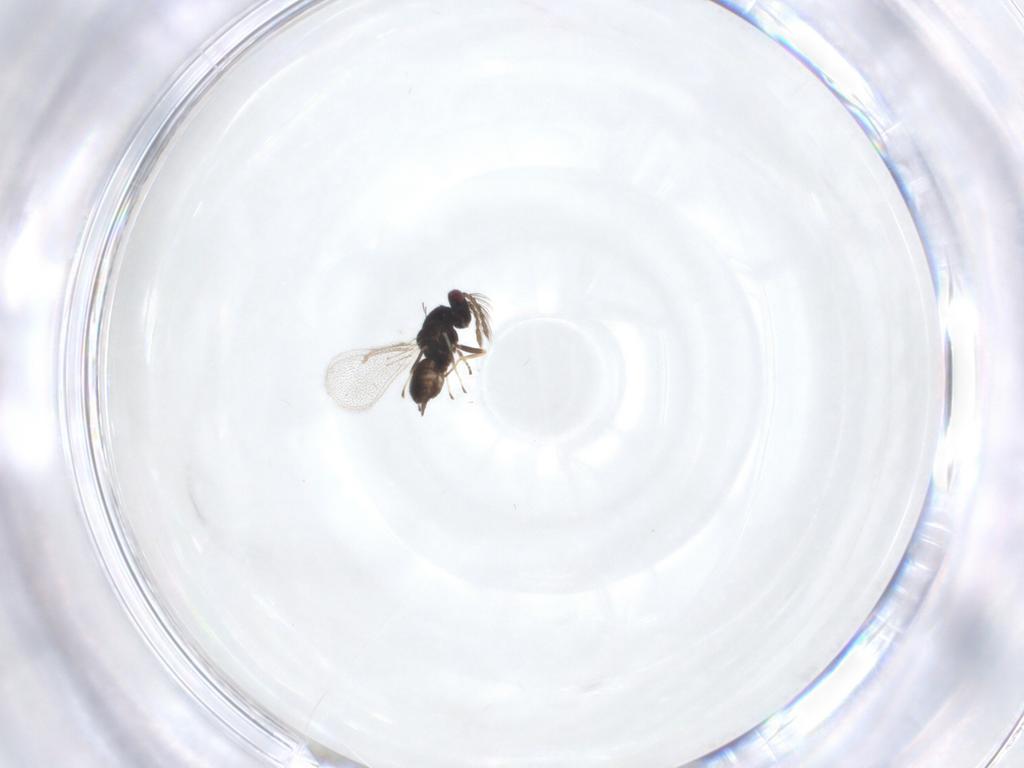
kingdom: Animalia
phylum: Arthropoda
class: Insecta
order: Hymenoptera
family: Eulophidae
